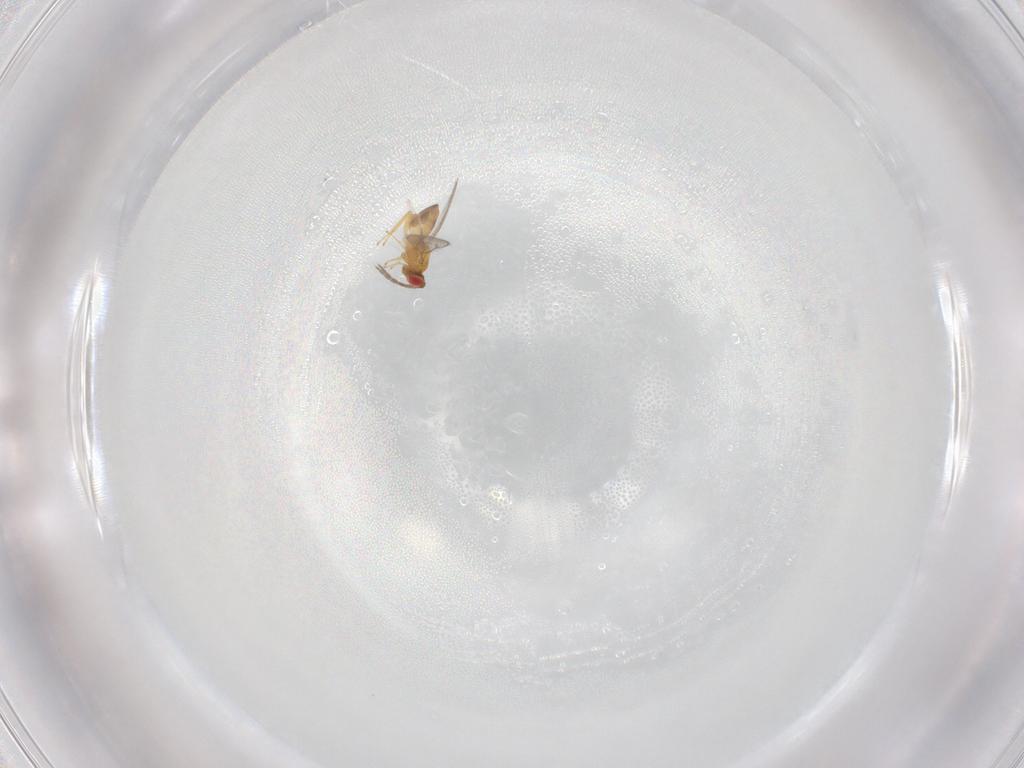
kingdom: Animalia
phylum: Arthropoda
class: Insecta
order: Hymenoptera
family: Eulophidae
